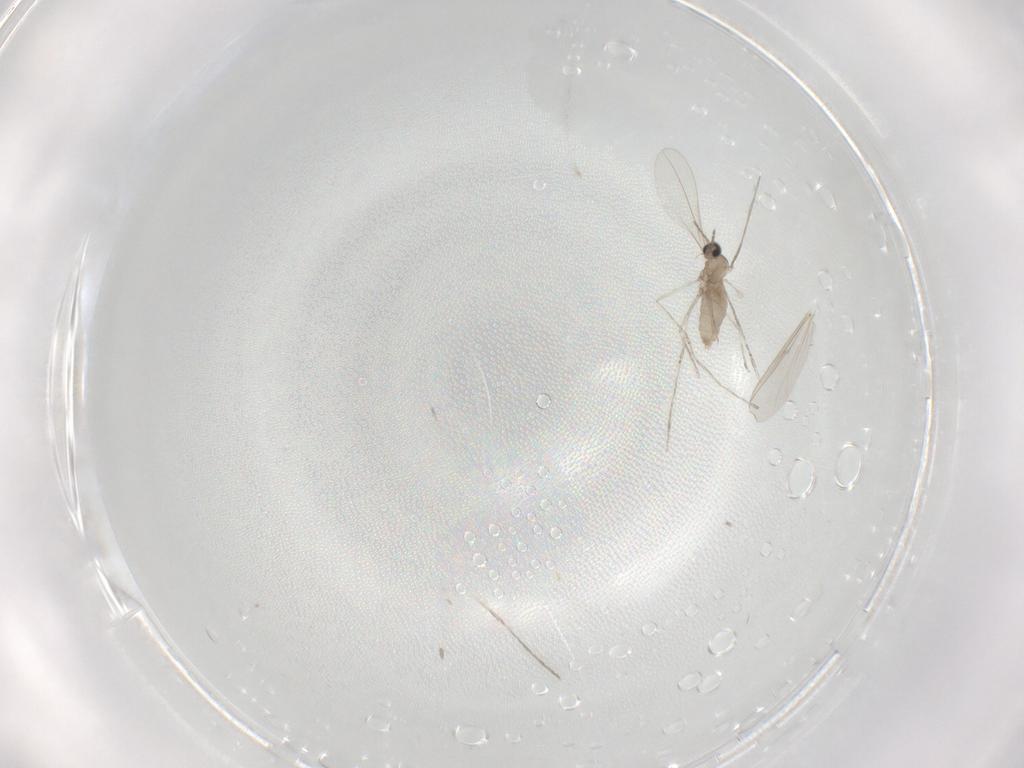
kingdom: Animalia
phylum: Arthropoda
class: Insecta
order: Diptera
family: Cecidomyiidae
